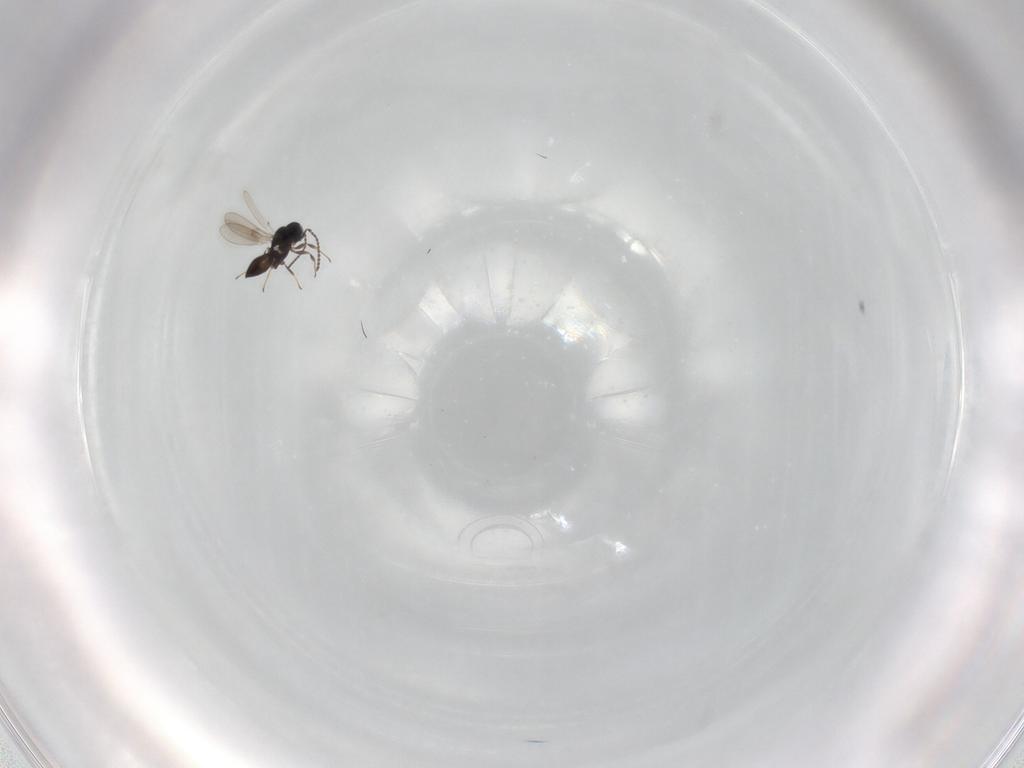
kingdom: Animalia
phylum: Arthropoda
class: Insecta
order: Hymenoptera
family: Scelionidae
